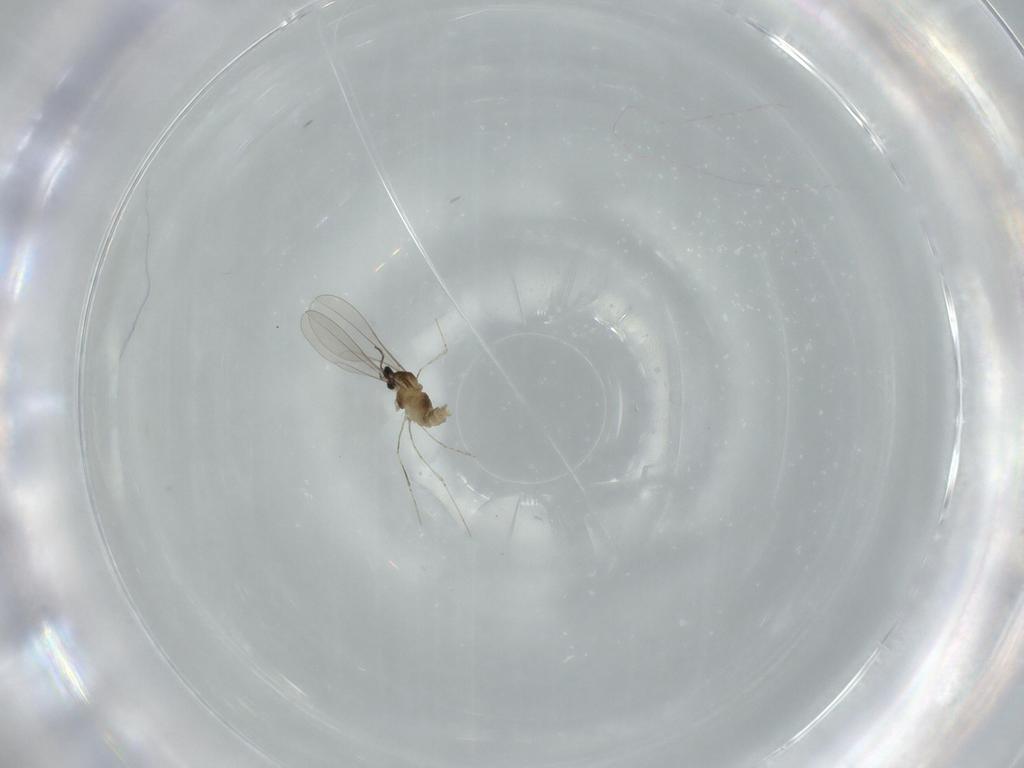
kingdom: Animalia
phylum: Arthropoda
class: Insecta
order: Diptera
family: Cecidomyiidae
